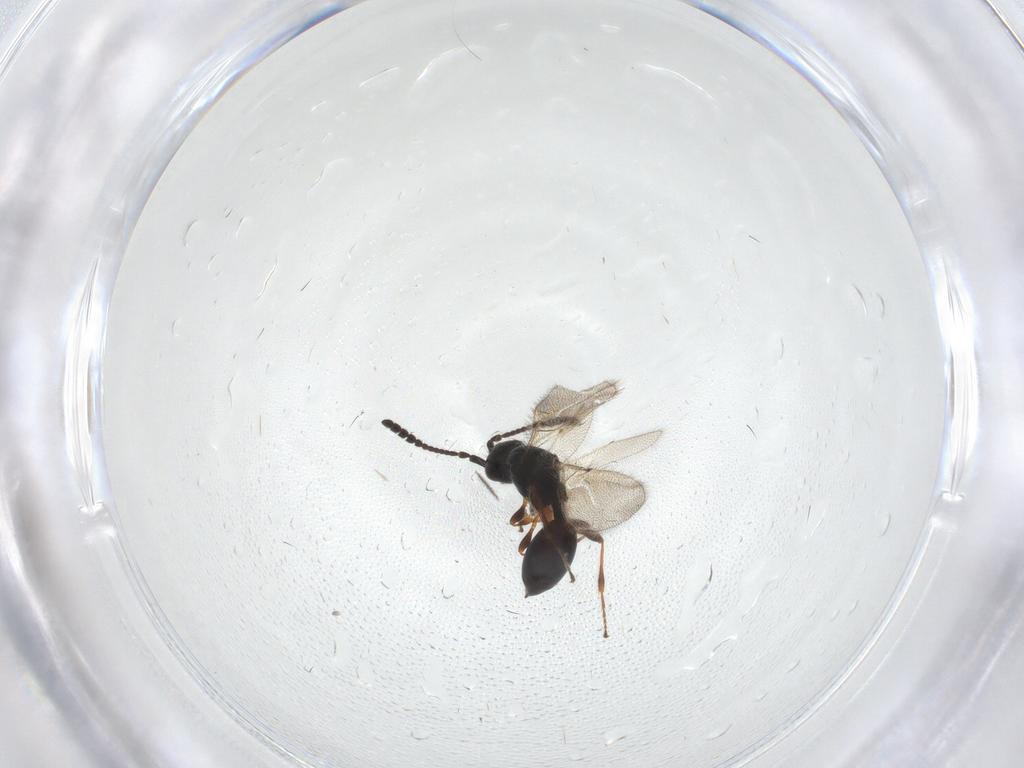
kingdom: Animalia
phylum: Arthropoda
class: Insecta
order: Hymenoptera
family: Diapriidae
